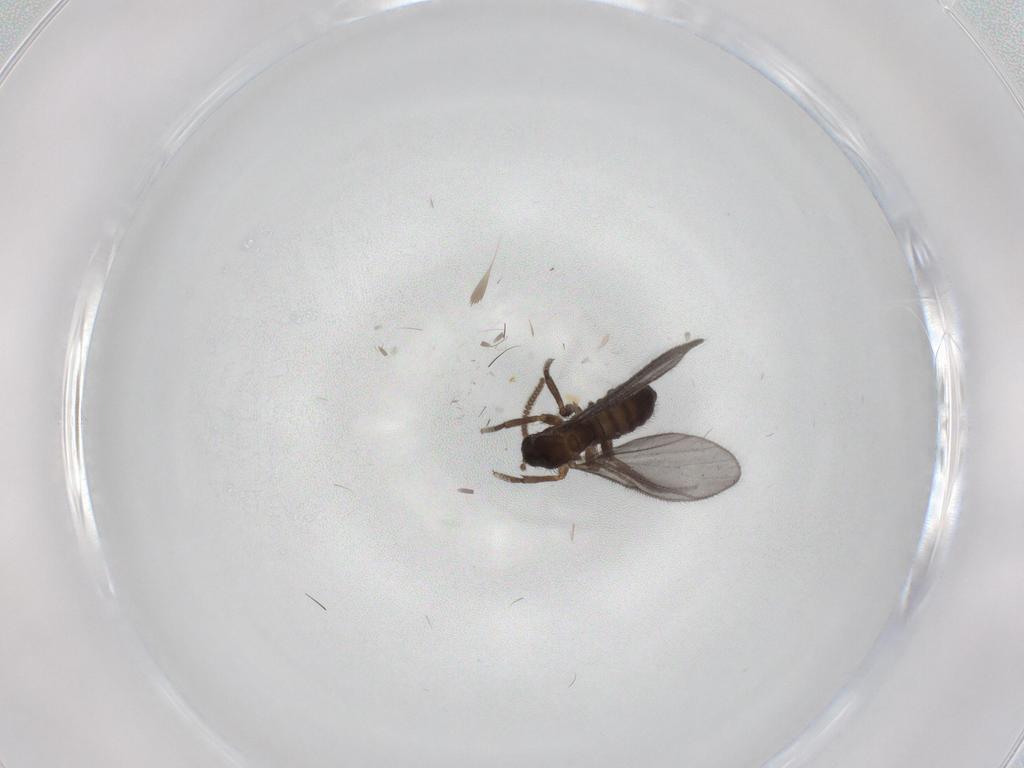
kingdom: Animalia
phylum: Arthropoda
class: Insecta
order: Diptera
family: Sciaridae
